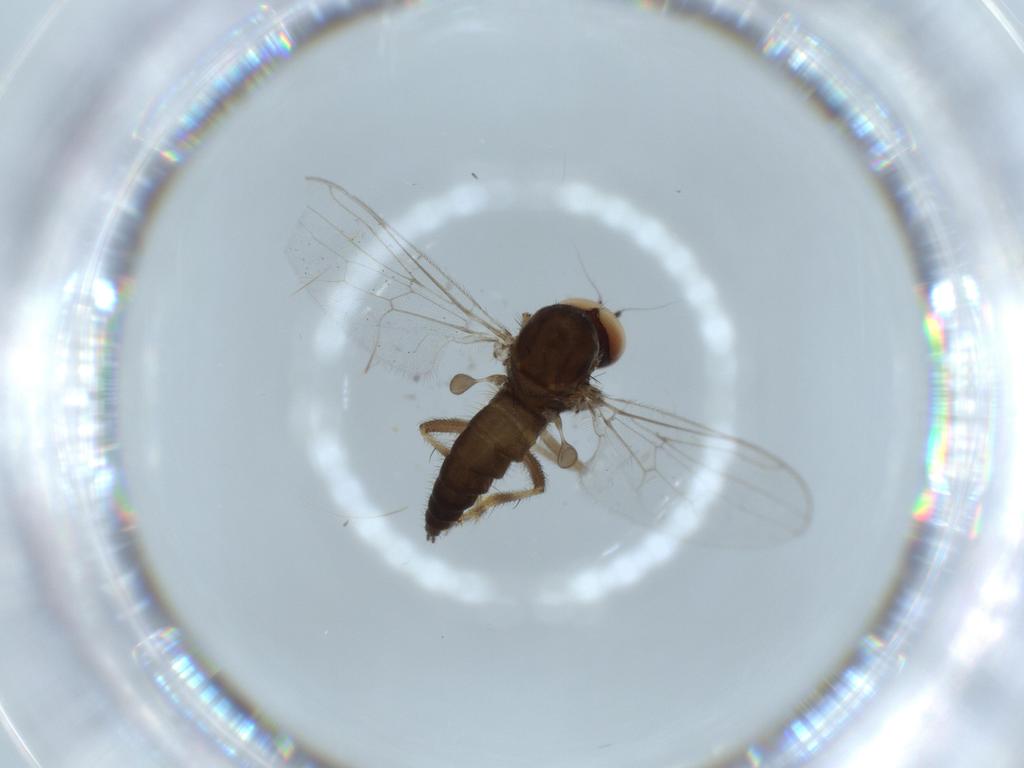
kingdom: Animalia
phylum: Arthropoda
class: Insecta
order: Diptera
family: Hybotidae
